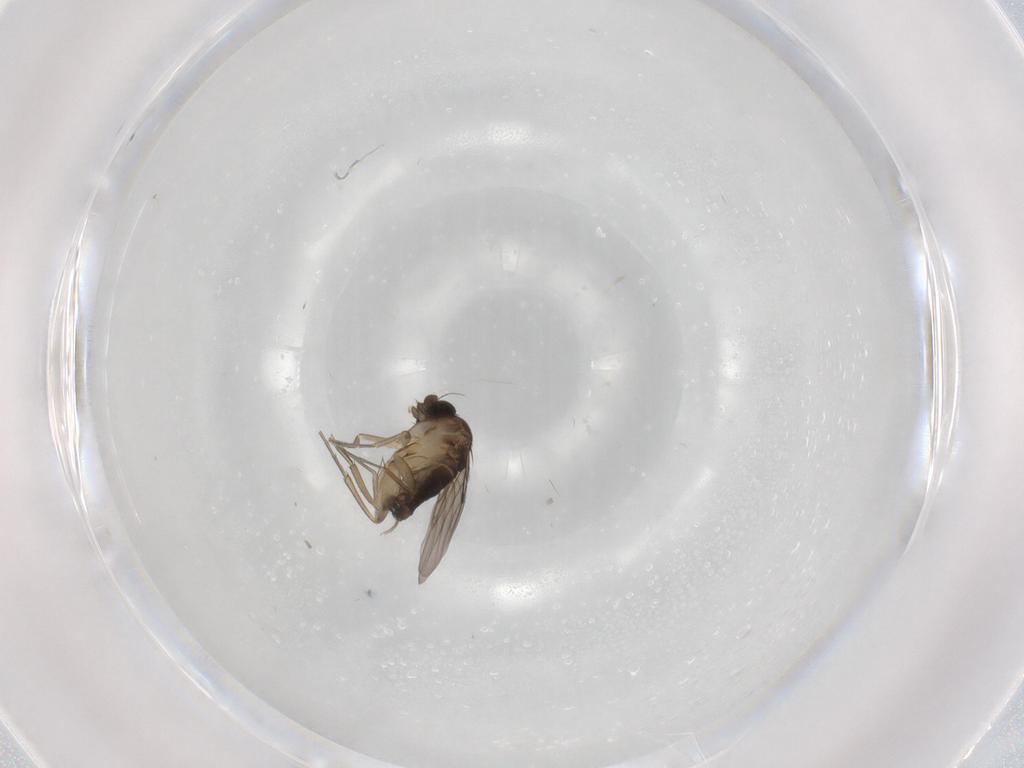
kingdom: Animalia
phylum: Arthropoda
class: Insecta
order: Diptera
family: Phoridae
